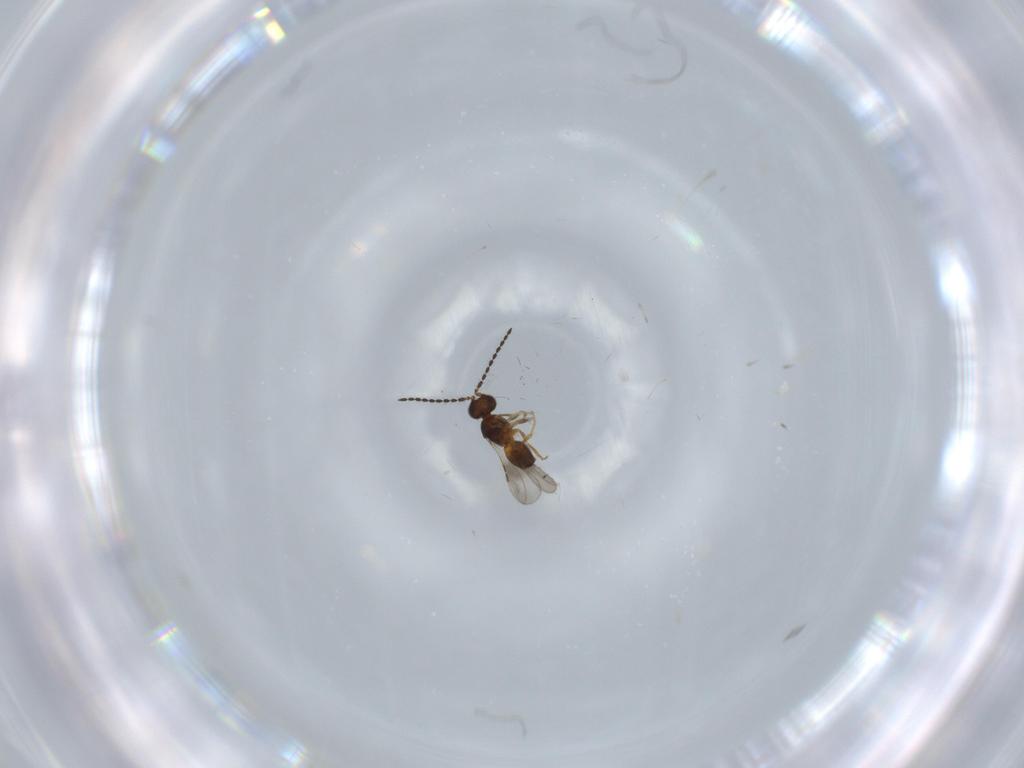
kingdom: Animalia
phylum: Arthropoda
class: Insecta
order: Hymenoptera
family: Ceraphronidae
